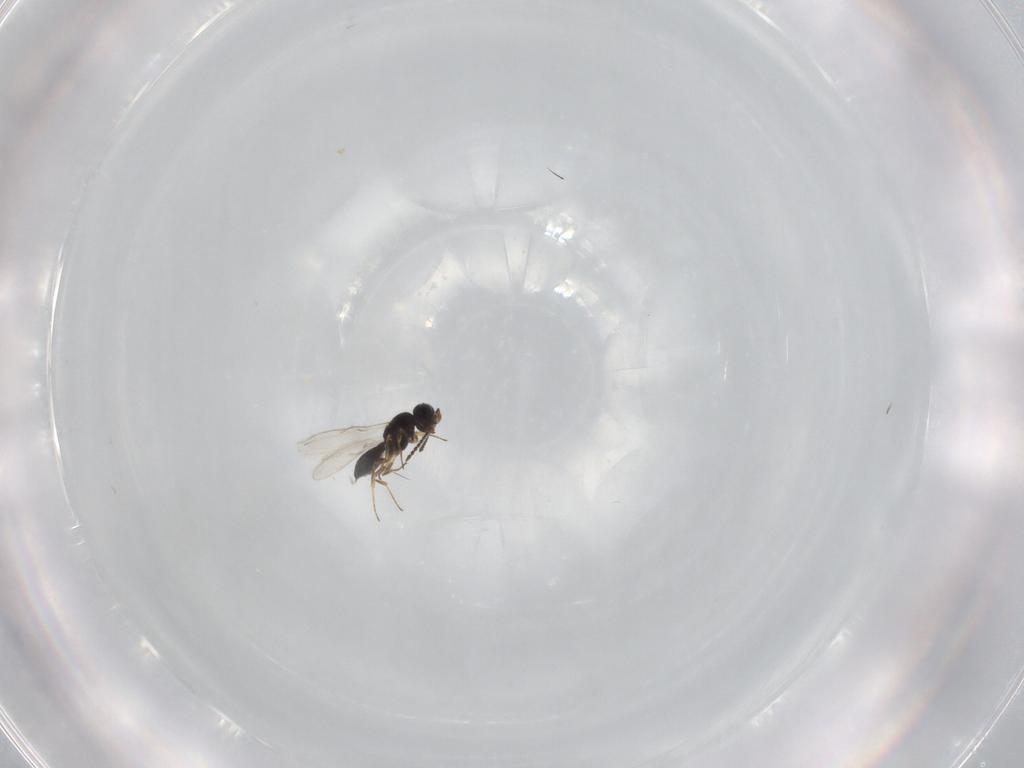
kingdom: Animalia
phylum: Arthropoda
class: Insecta
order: Hymenoptera
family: Scelionidae
